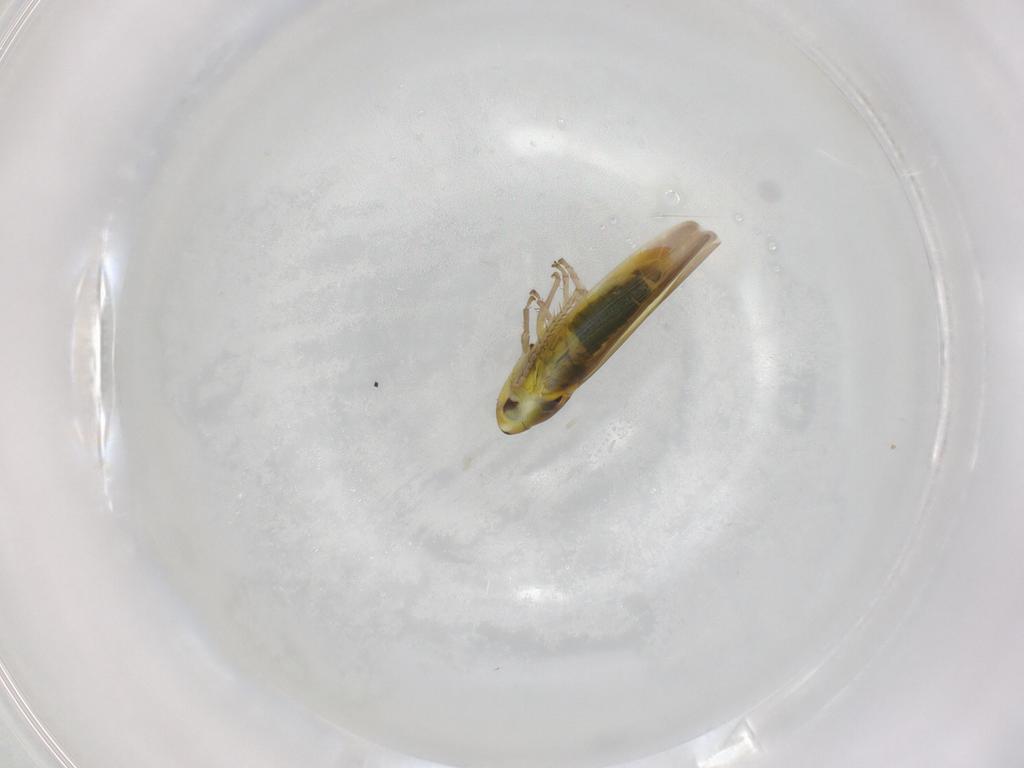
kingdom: Animalia
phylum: Arthropoda
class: Insecta
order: Hemiptera
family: Cicadellidae
